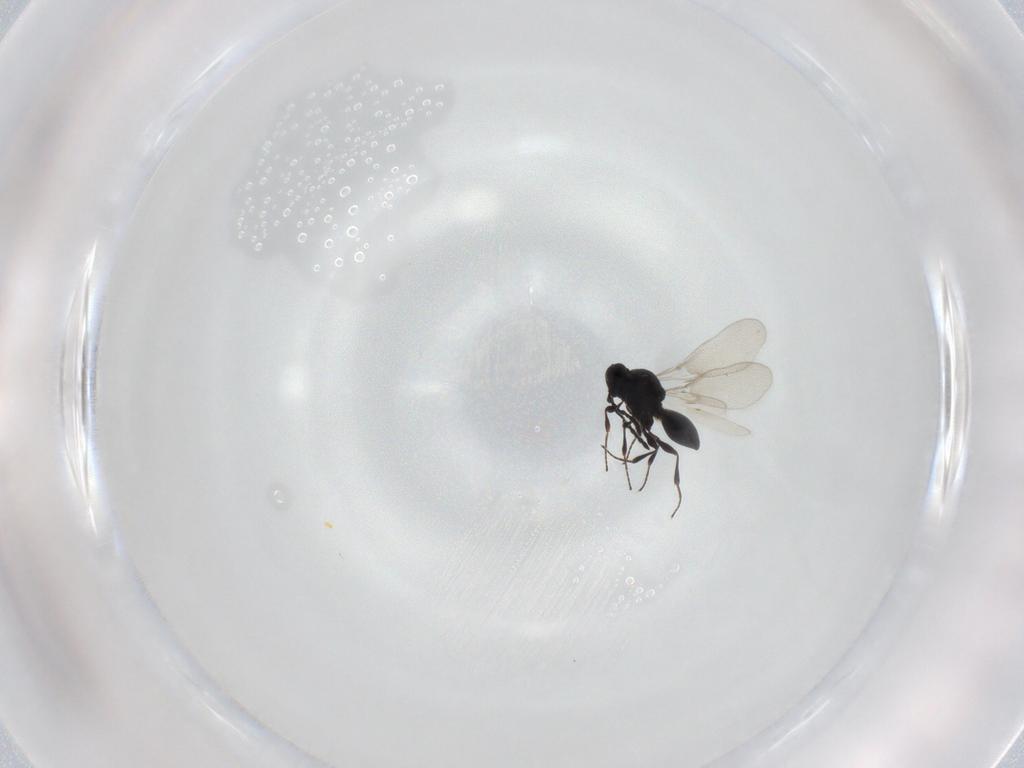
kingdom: Animalia
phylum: Arthropoda
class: Insecta
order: Hymenoptera
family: Platygastridae
